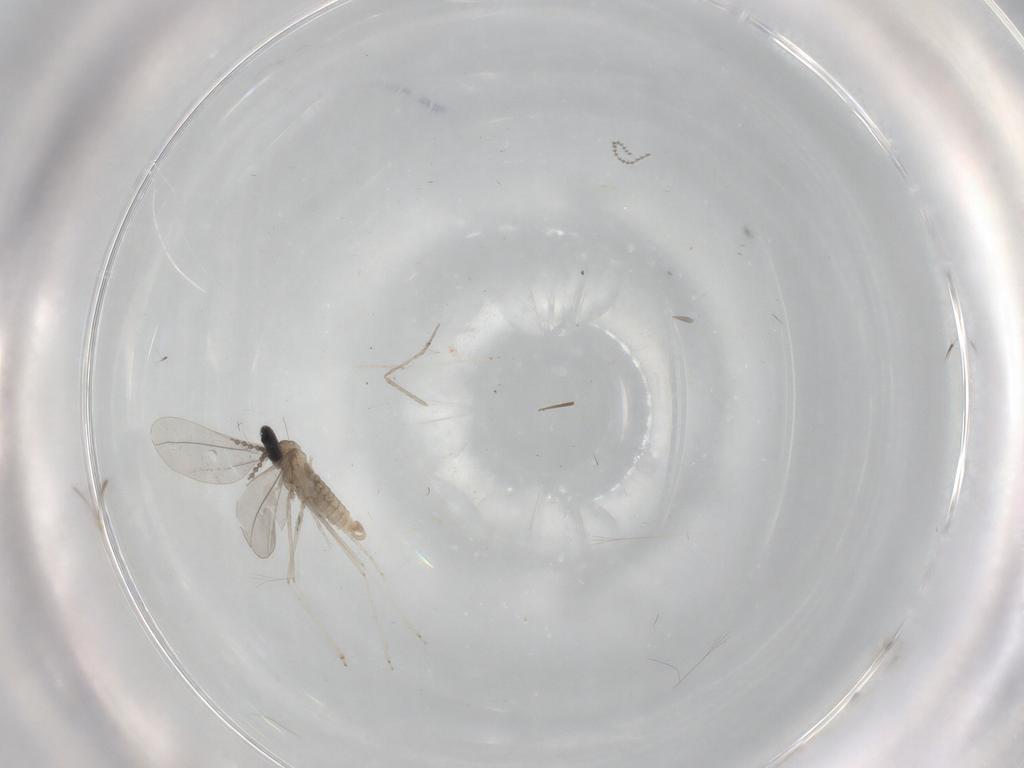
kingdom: Animalia
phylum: Arthropoda
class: Insecta
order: Diptera
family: Cecidomyiidae
